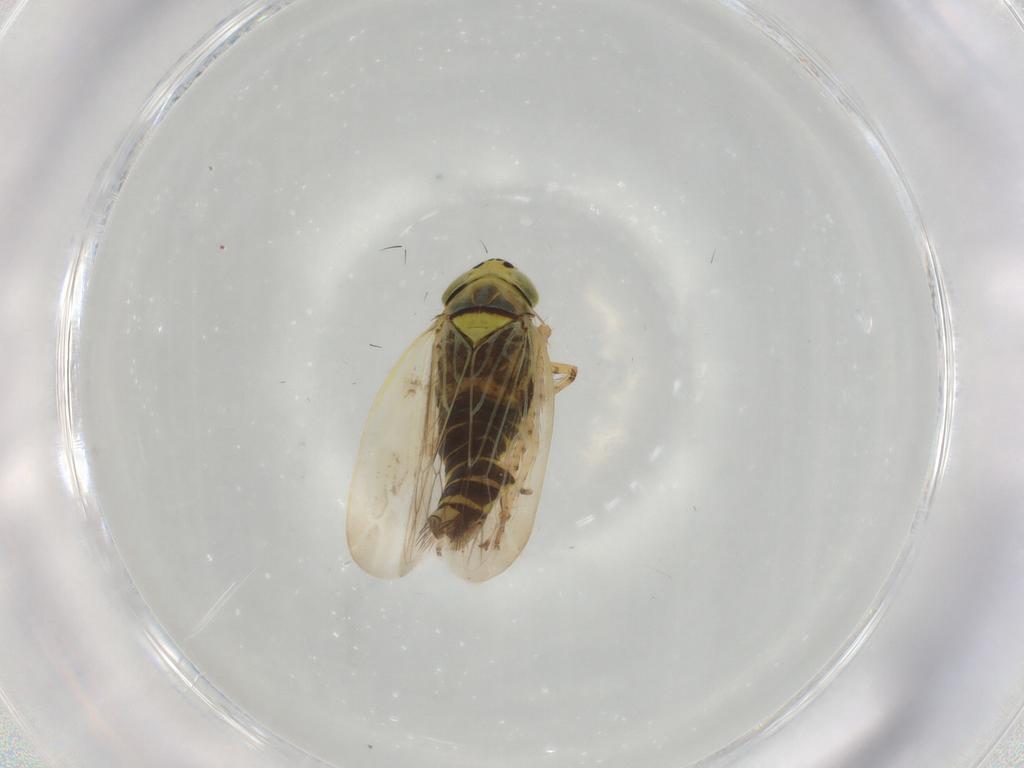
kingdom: Animalia
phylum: Arthropoda
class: Insecta
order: Hemiptera
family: Cicadellidae
